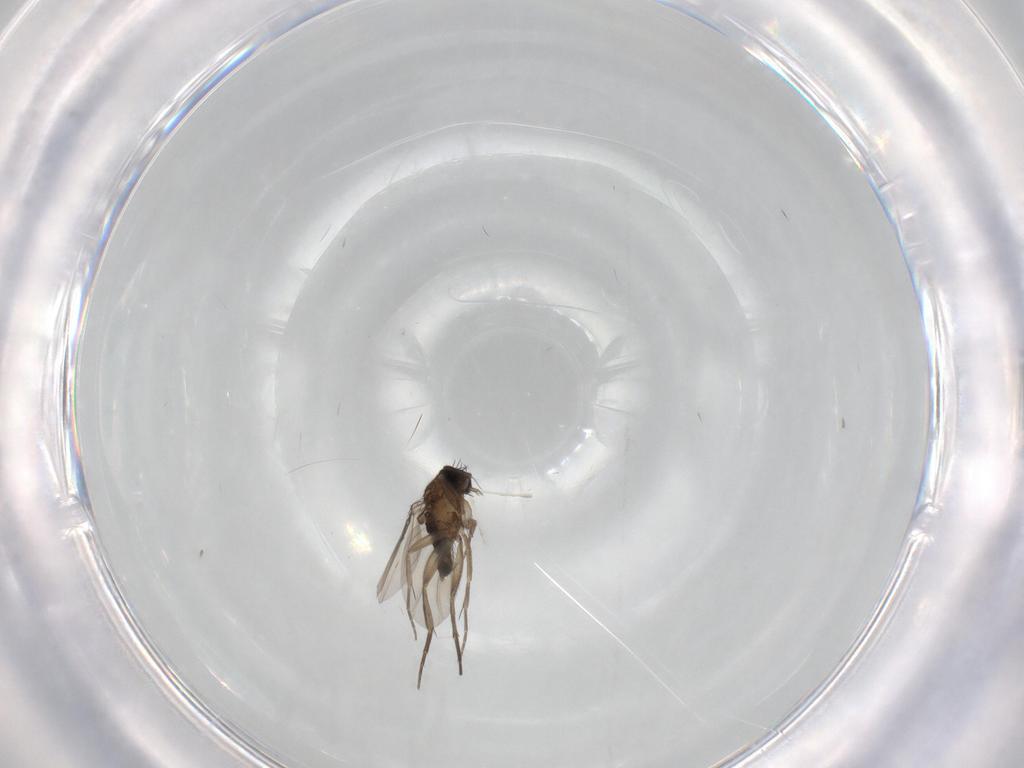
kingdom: Animalia
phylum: Arthropoda
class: Insecta
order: Diptera
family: Phoridae
